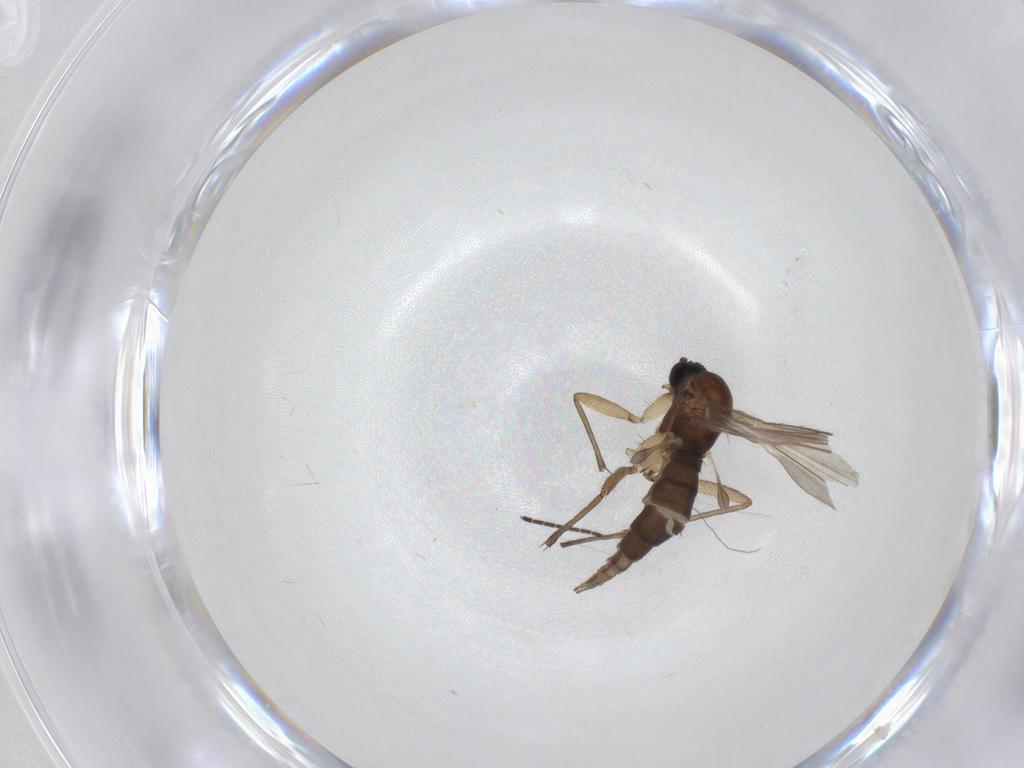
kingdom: Animalia
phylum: Arthropoda
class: Insecta
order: Diptera
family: Sciaridae
